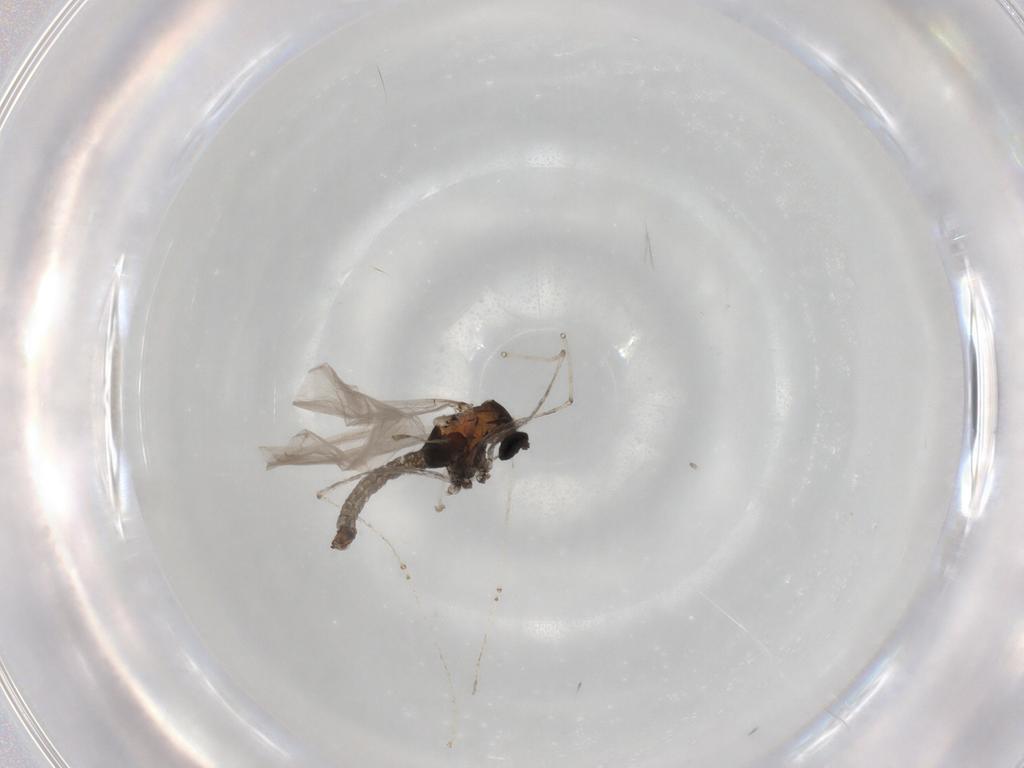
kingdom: Animalia
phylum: Arthropoda
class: Insecta
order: Diptera
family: Cecidomyiidae
